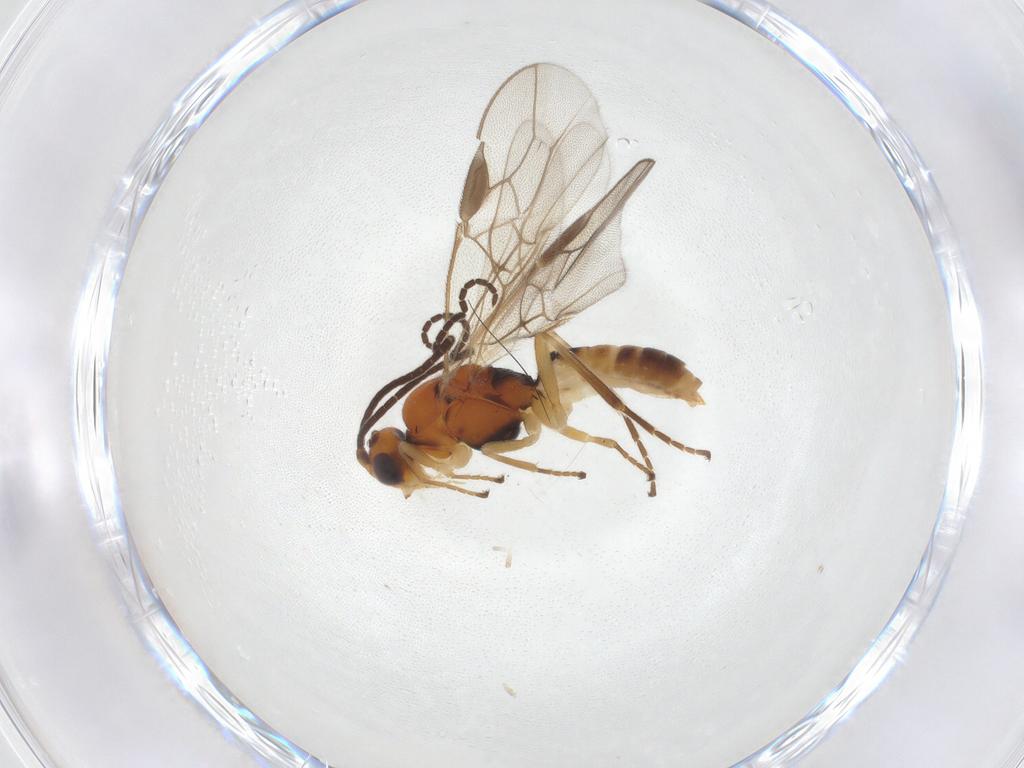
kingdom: Animalia
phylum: Arthropoda
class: Insecta
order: Hymenoptera
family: Braconidae
